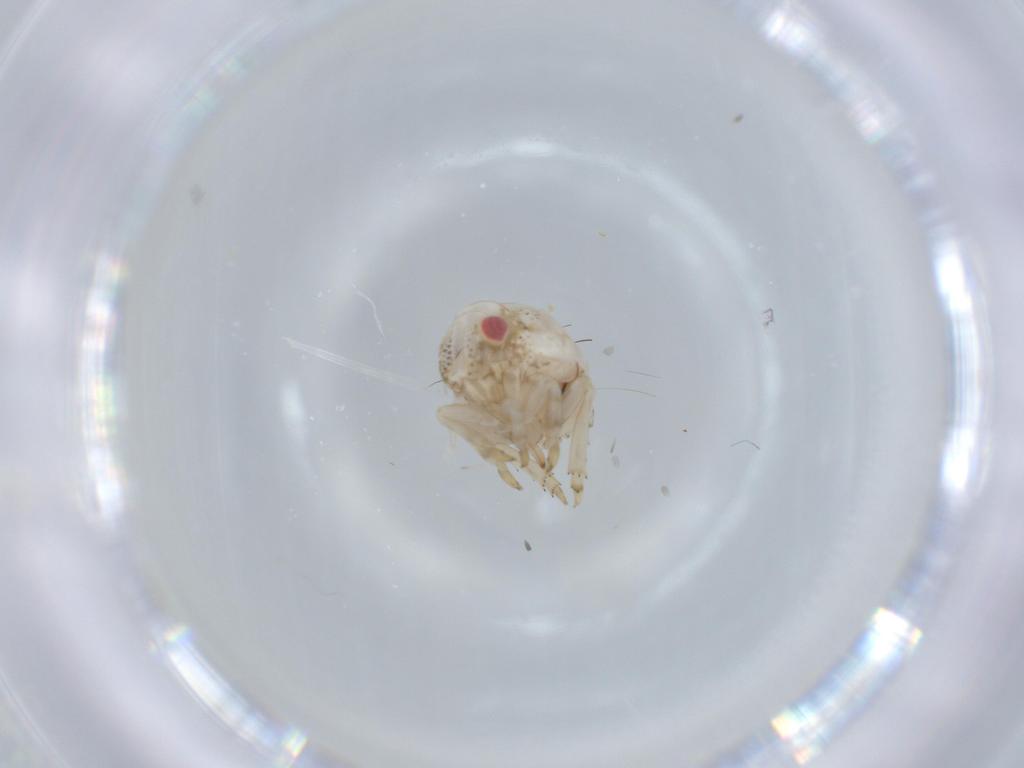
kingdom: Animalia
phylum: Arthropoda
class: Insecta
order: Hemiptera
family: Acanaloniidae
